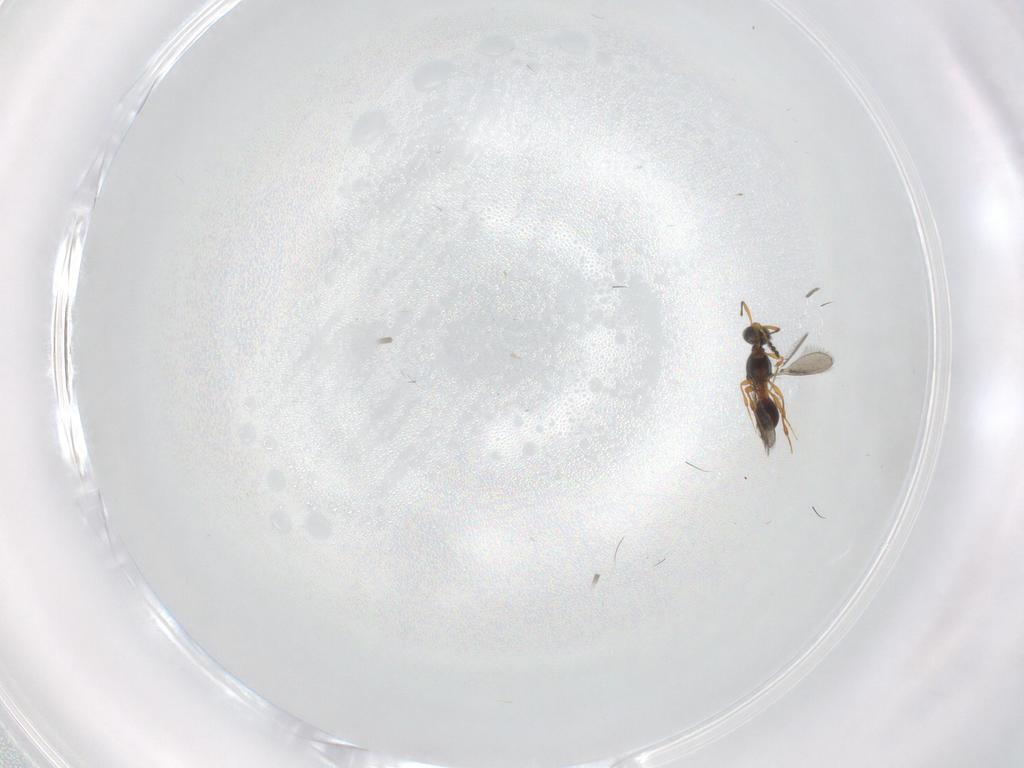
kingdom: Animalia
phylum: Arthropoda
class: Insecta
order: Hymenoptera
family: Platygastridae
